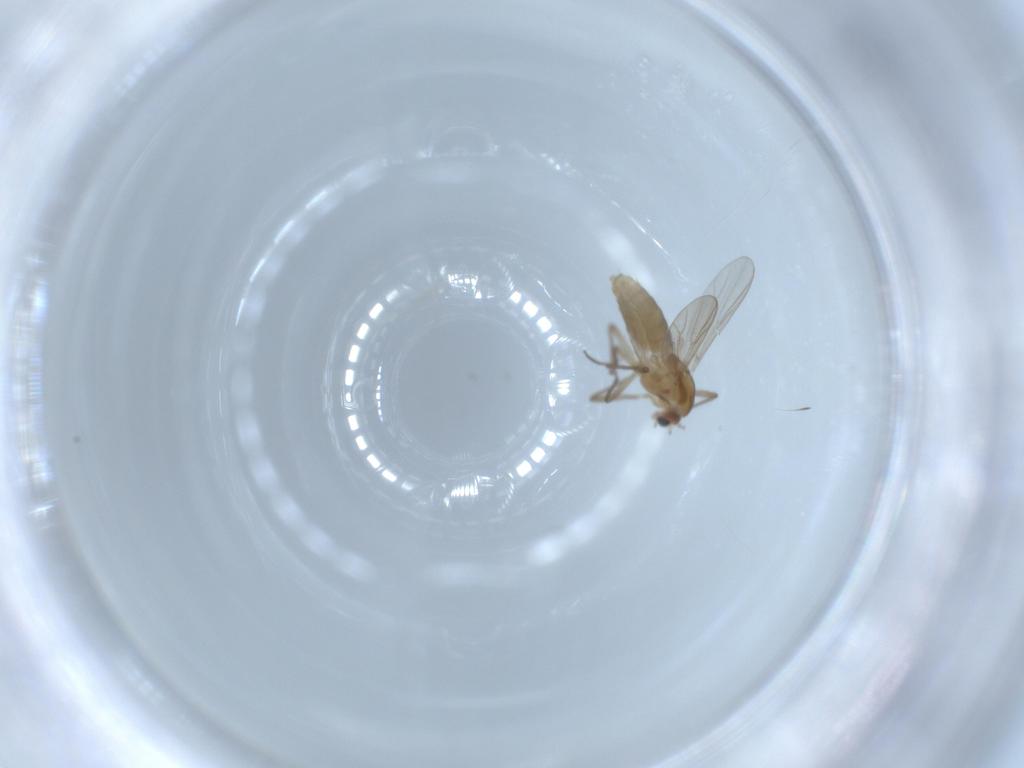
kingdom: Animalia
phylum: Arthropoda
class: Insecta
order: Diptera
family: Chironomidae
